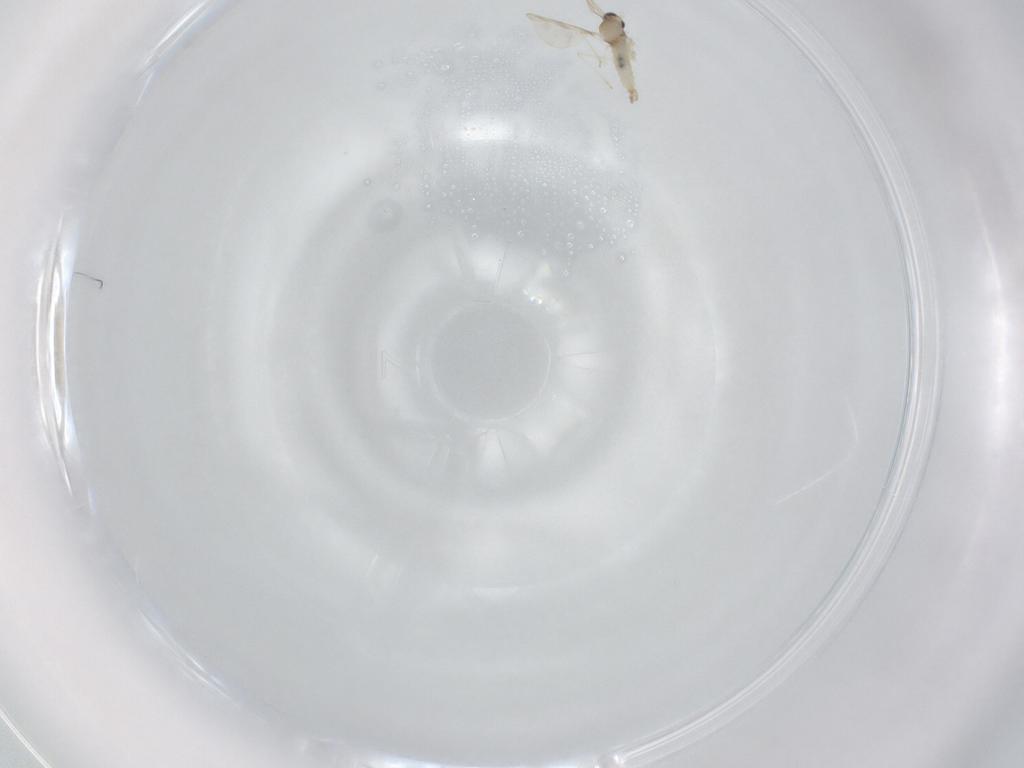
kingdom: Animalia
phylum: Arthropoda
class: Insecta
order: Diptera
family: Cecidomyiidae
